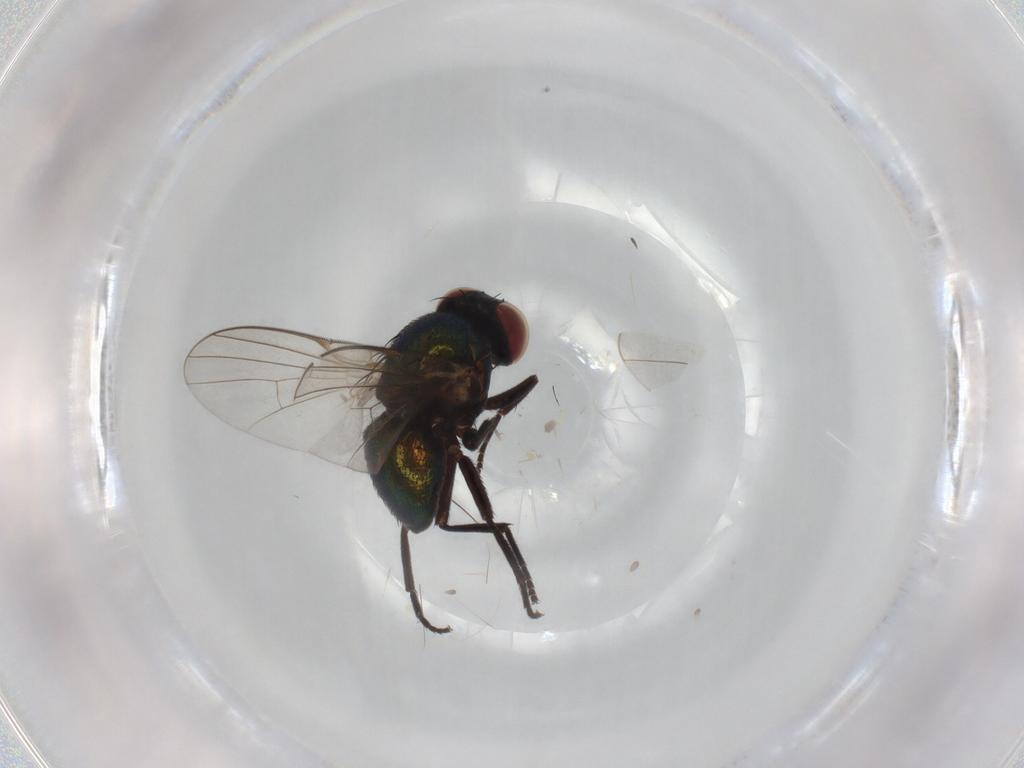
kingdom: Animalia
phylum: Arthropoda
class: Insecta
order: Diptera
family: Agromyzidae
